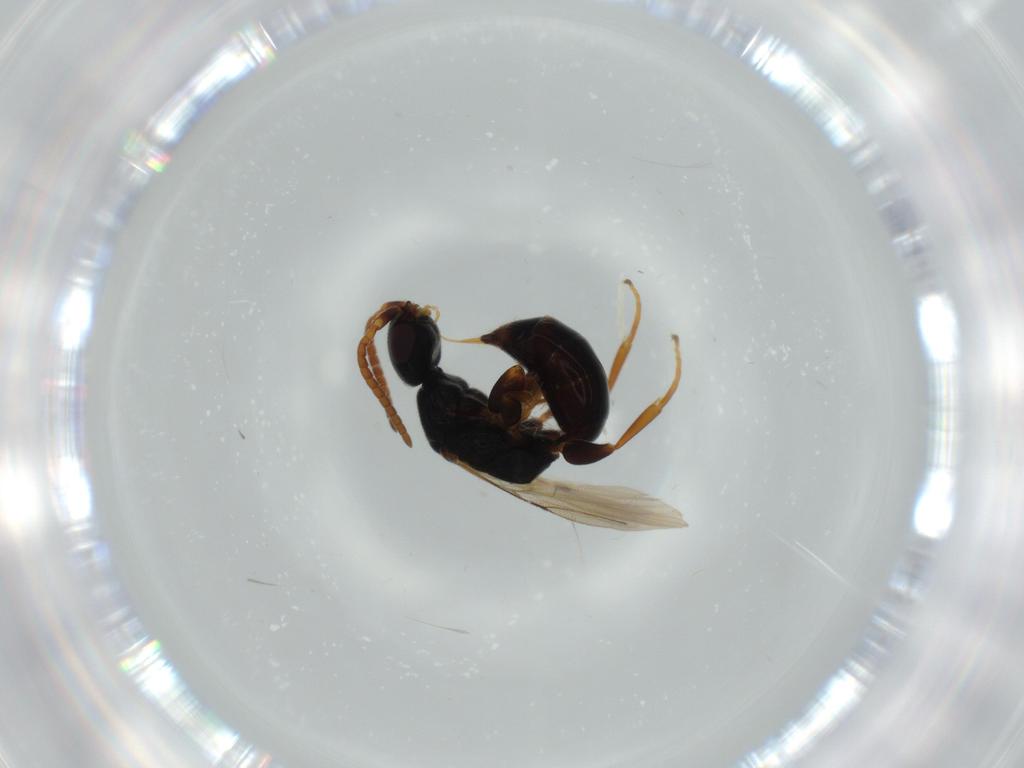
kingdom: Animalia
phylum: Arthropoda
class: Insecta
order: Hymenoptera
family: Bethylidae
